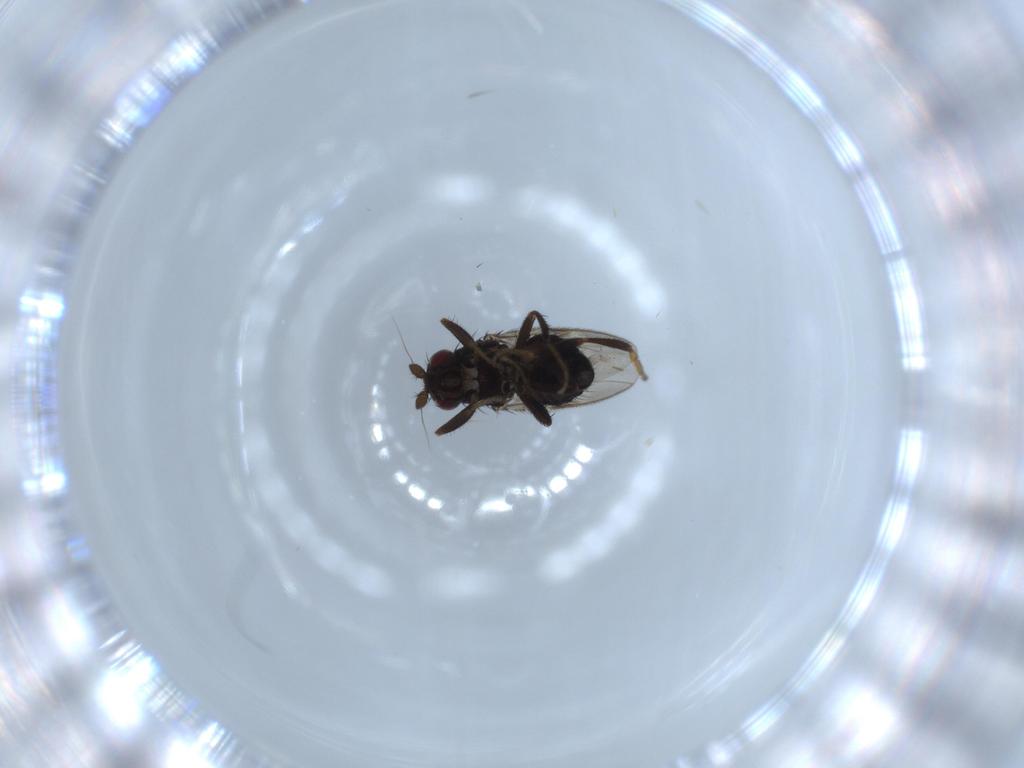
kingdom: Animalia
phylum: Arthropoda
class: Insecta
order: Diptera
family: Sphaeroceridae
